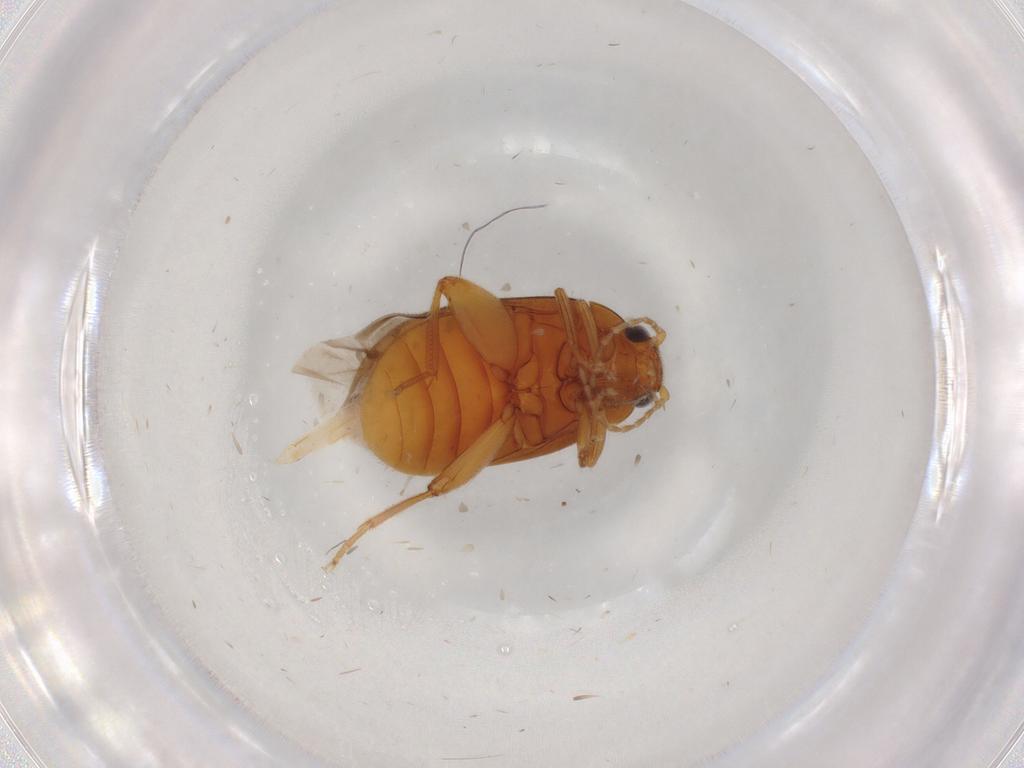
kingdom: Animalia
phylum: Arthropoda
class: Insecta
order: Coleoptera
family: Scirtidae
